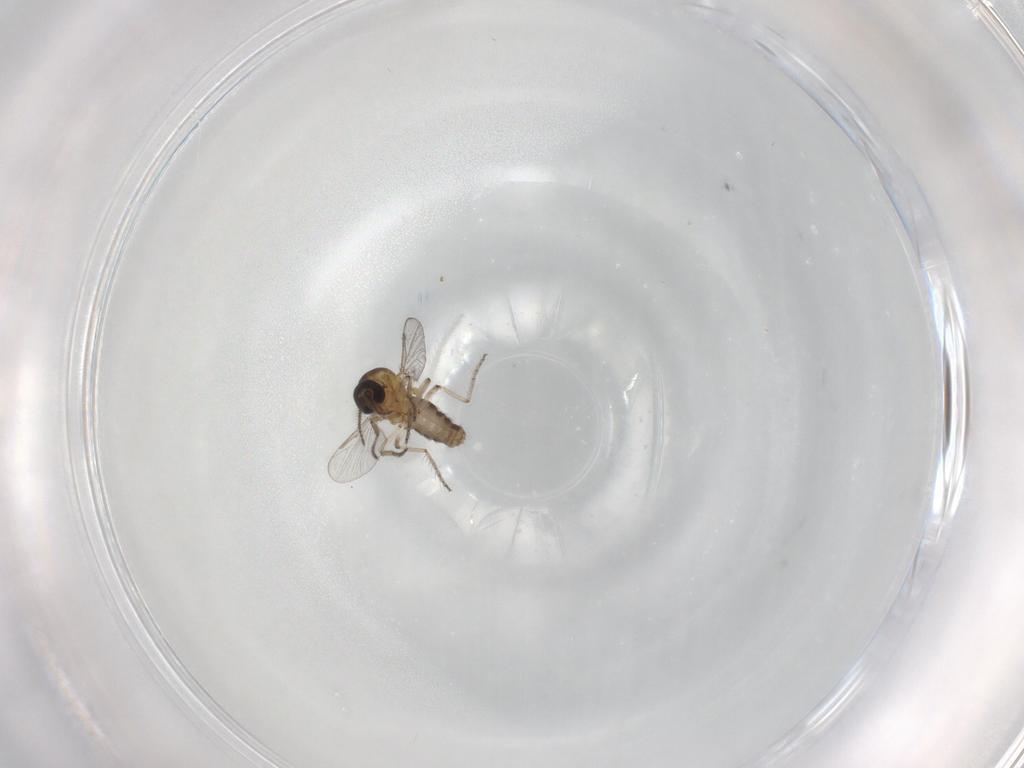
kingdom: Animalia
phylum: Arthropoda
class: Insecta
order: Diptera
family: Ceratopogonidae
